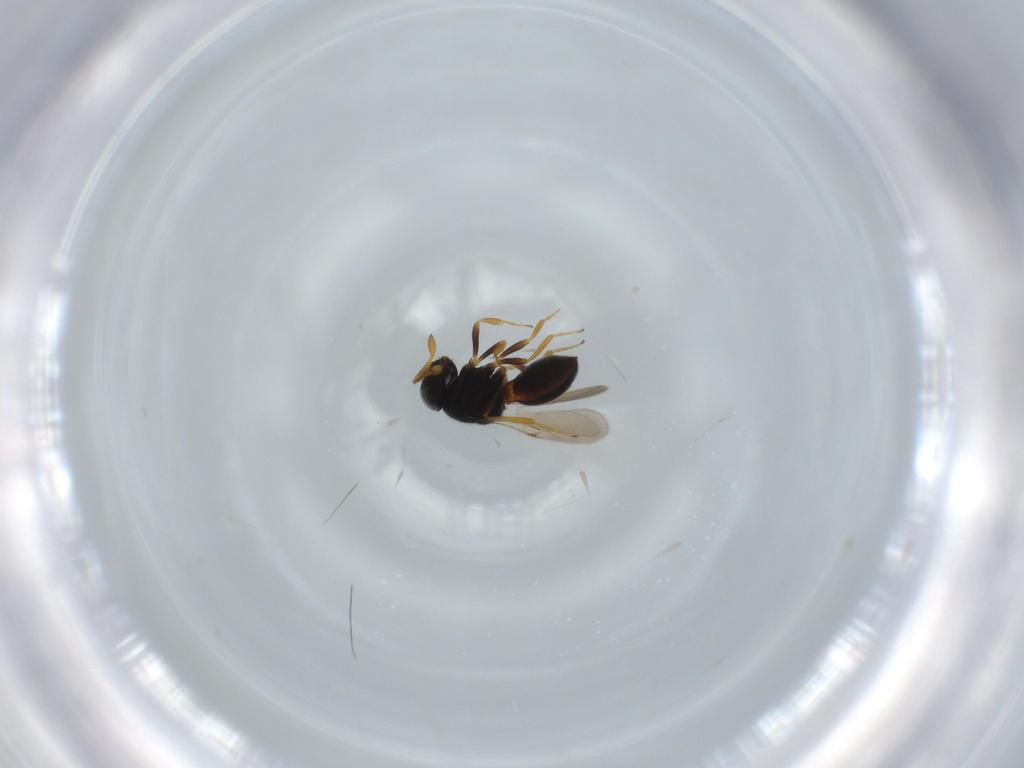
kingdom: Animalia
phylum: Arthropoda
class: Insecta
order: Hymenoptera
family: Scelionidae
